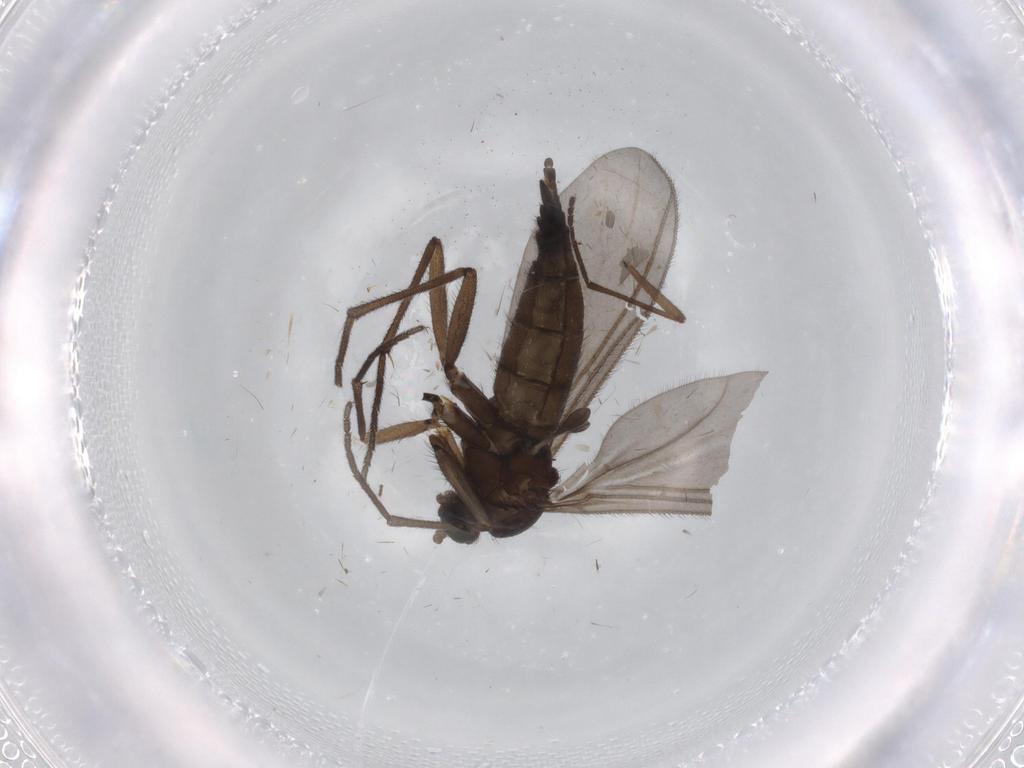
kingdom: Animalia
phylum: Arthropoda
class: Insecta
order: Diptera
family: Sciaridae
